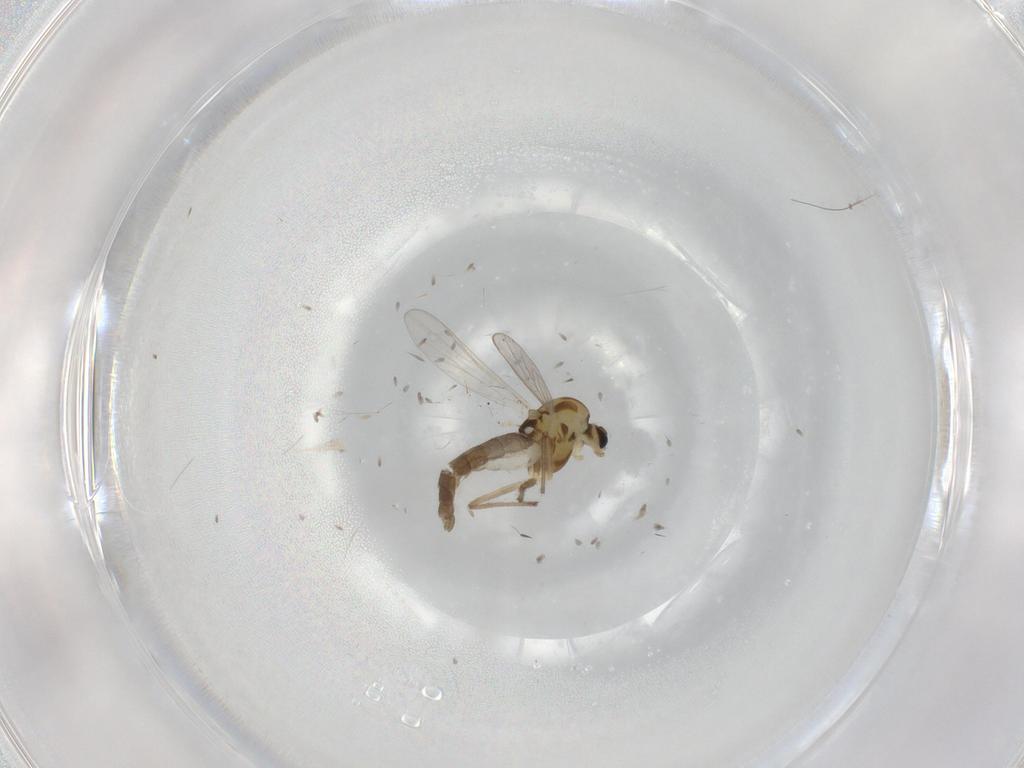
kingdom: Animalia
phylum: Arthropoda
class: Insecta
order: Diptera
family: Chironomidae
